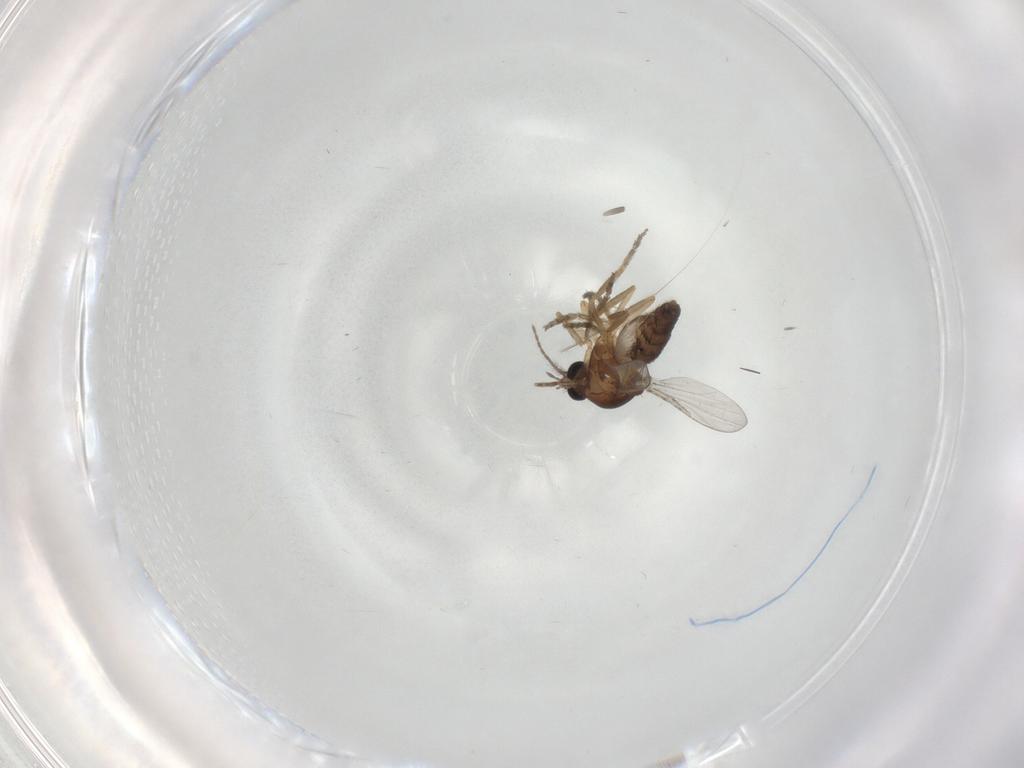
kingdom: Animalia
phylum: Arthropoda
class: Insecta
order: Diptera
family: Ceratopogonidae
